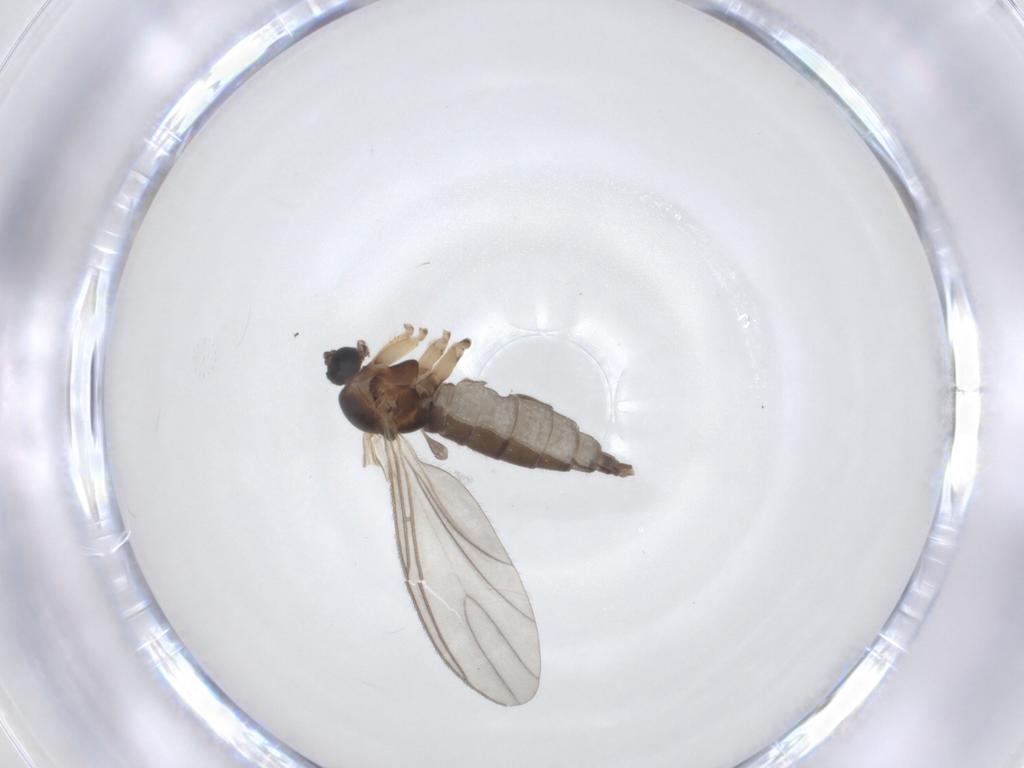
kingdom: Animalia
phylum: Arthropoda
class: Insecta
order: Diptera
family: Sciaridae
